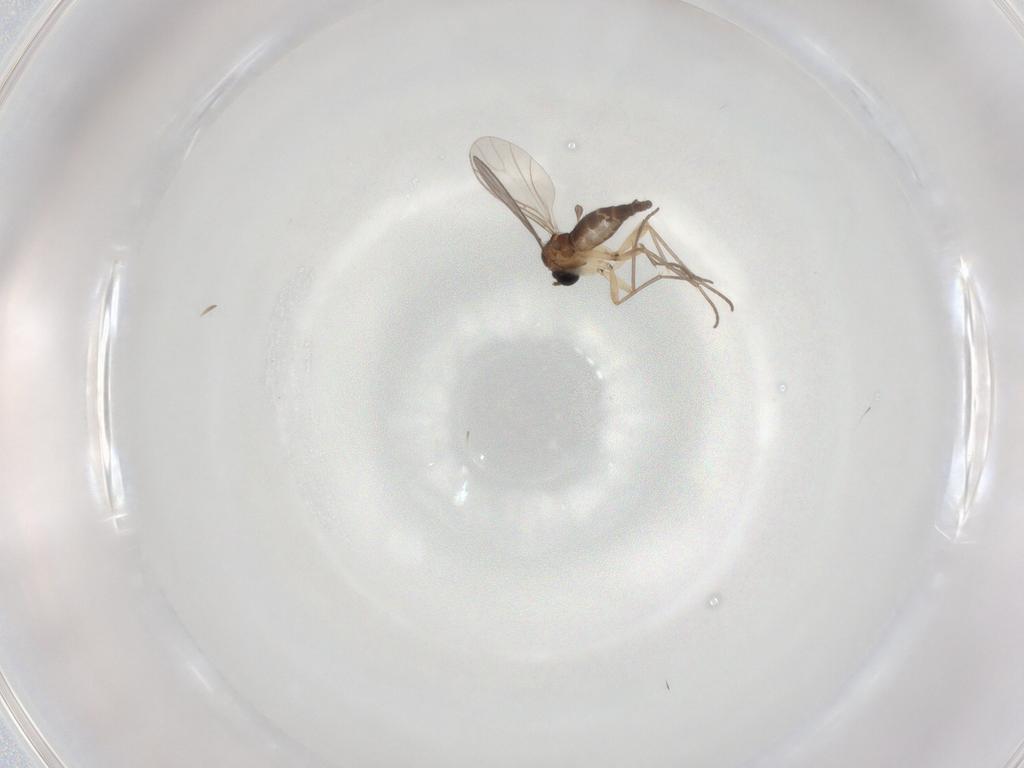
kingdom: Animalia
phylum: Arthropoda
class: Insecta
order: Diptera
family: Sciaridae
